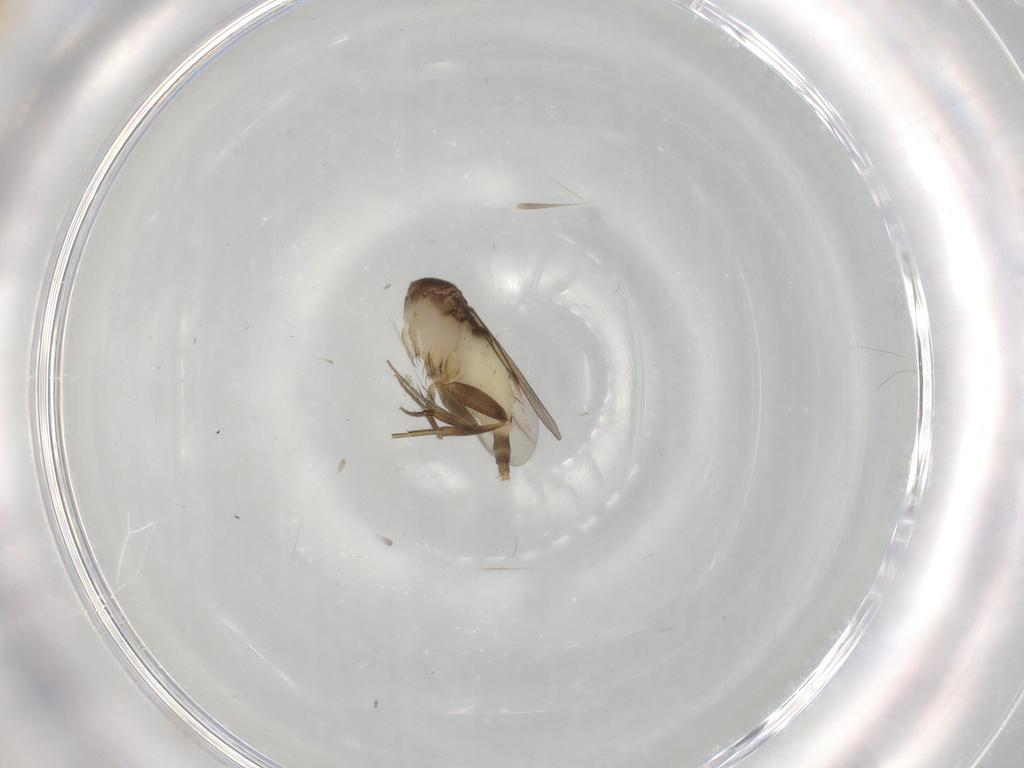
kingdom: Animalia
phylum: Arthropoda
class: Insecta
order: Diptera
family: Phoridae
